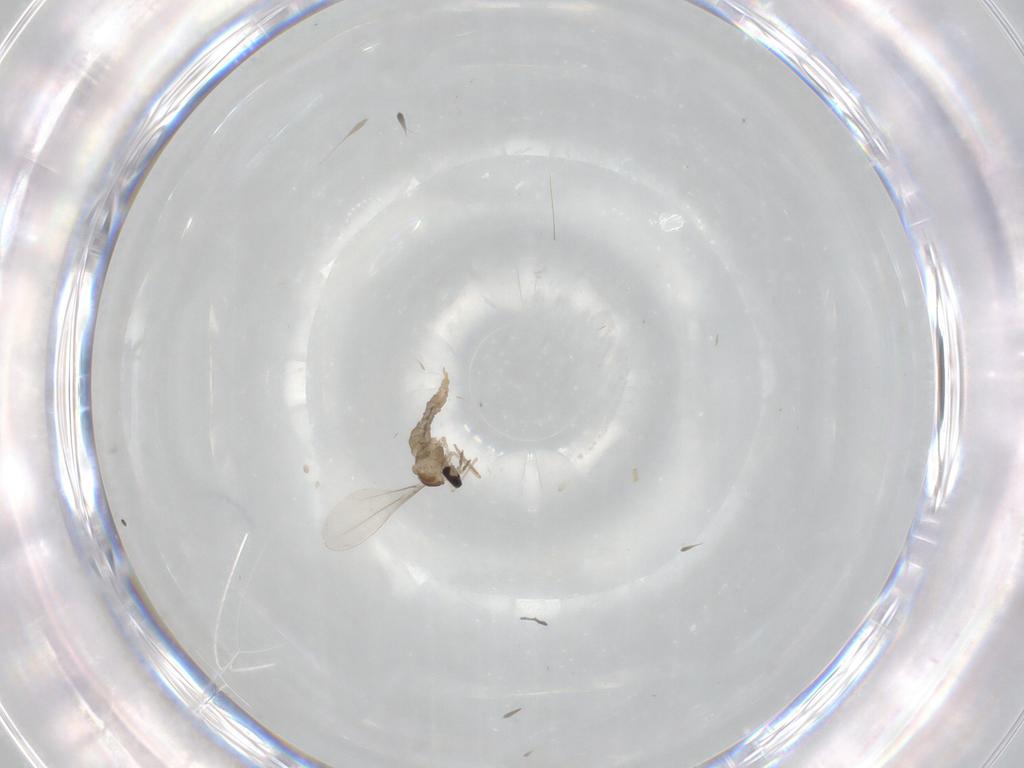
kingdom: Animalia
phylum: Arthropoda
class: Insecta
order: Diptera
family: Cecidomyiidae
